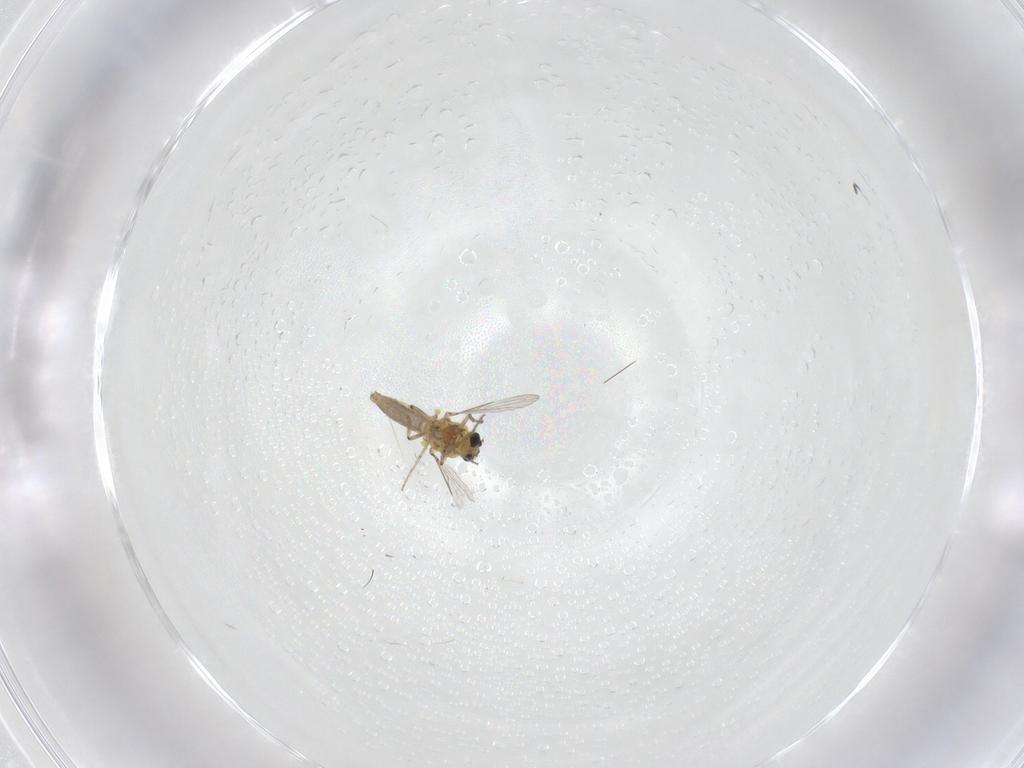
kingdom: Animalia
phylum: Arthropoda
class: Insecta
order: Diptera
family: Ceratopogonidae
